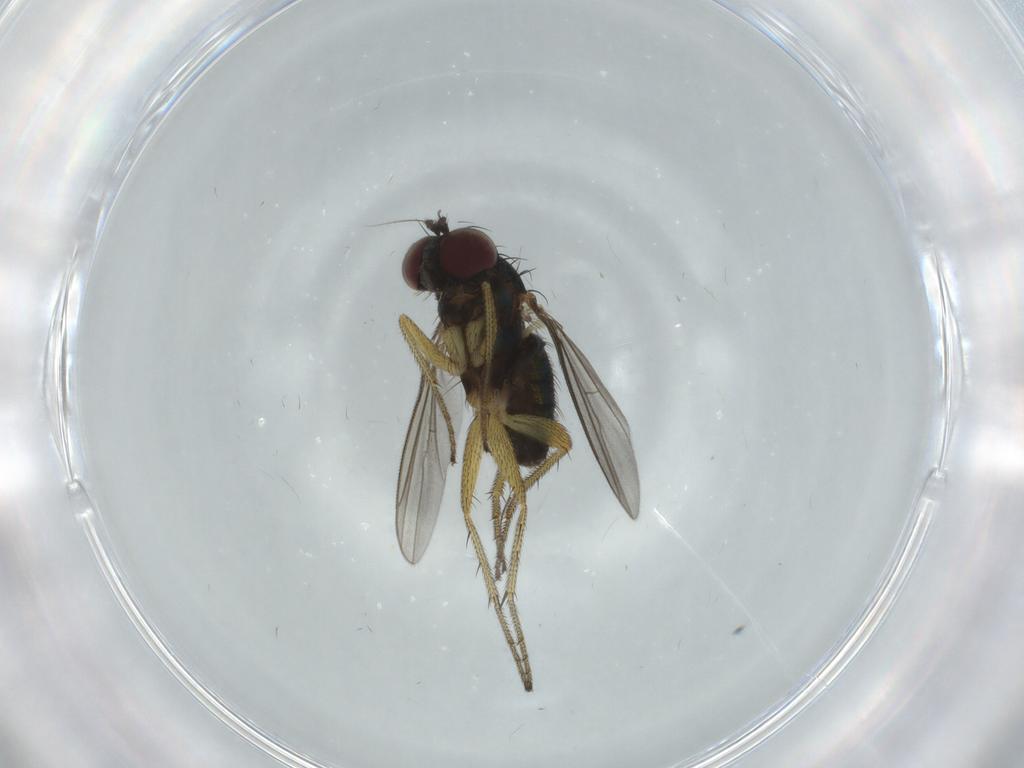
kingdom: Animalia
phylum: Arthropoda
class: Insecta
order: Diptera
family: Dolichopodidae
